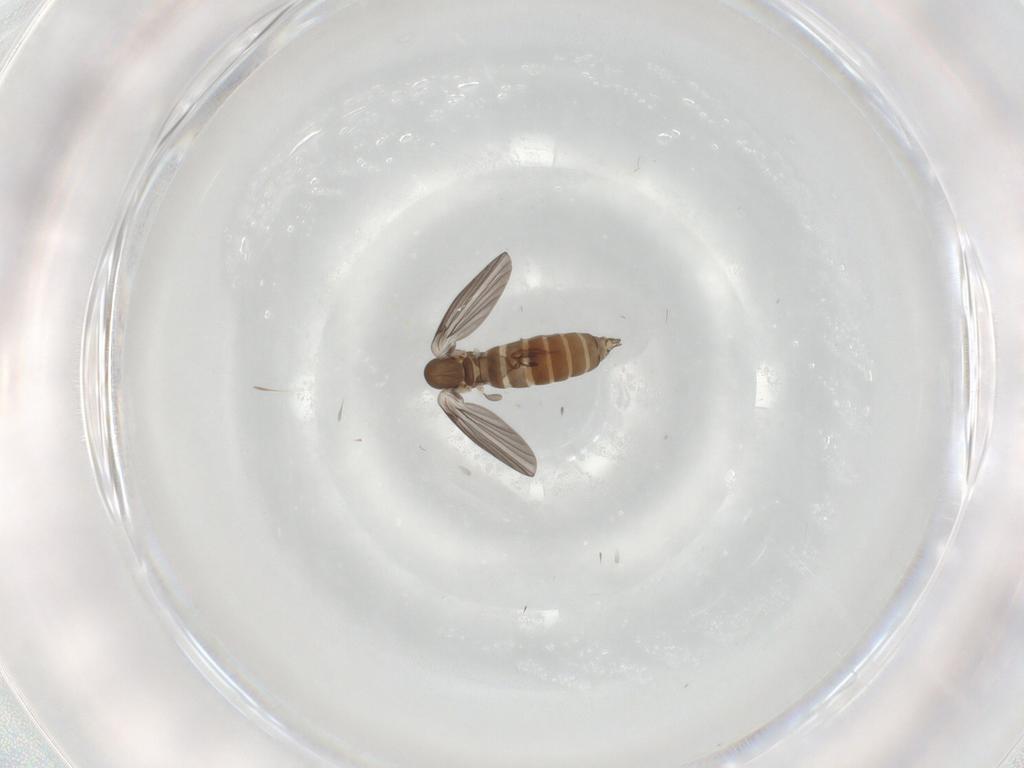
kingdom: Animalia
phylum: Arthropoda
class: Insecta
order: Diptera
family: Psychodidae
